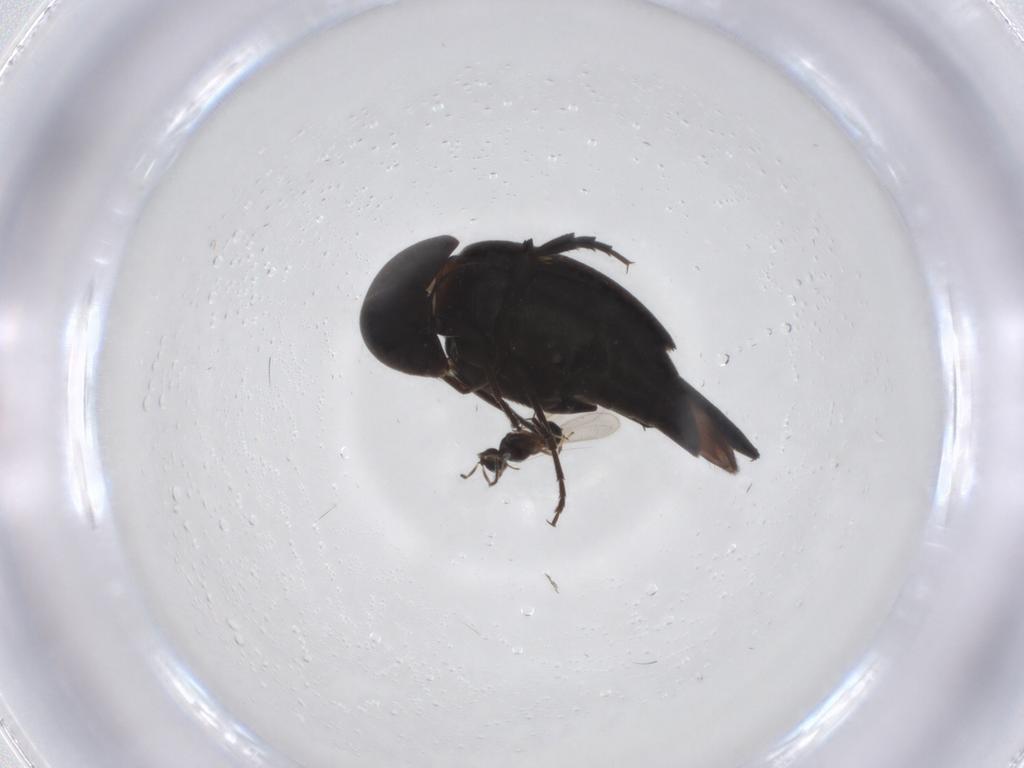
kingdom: Animalia
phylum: Arthropoda
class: Insecta
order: Coleoptera
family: Mordellidae
